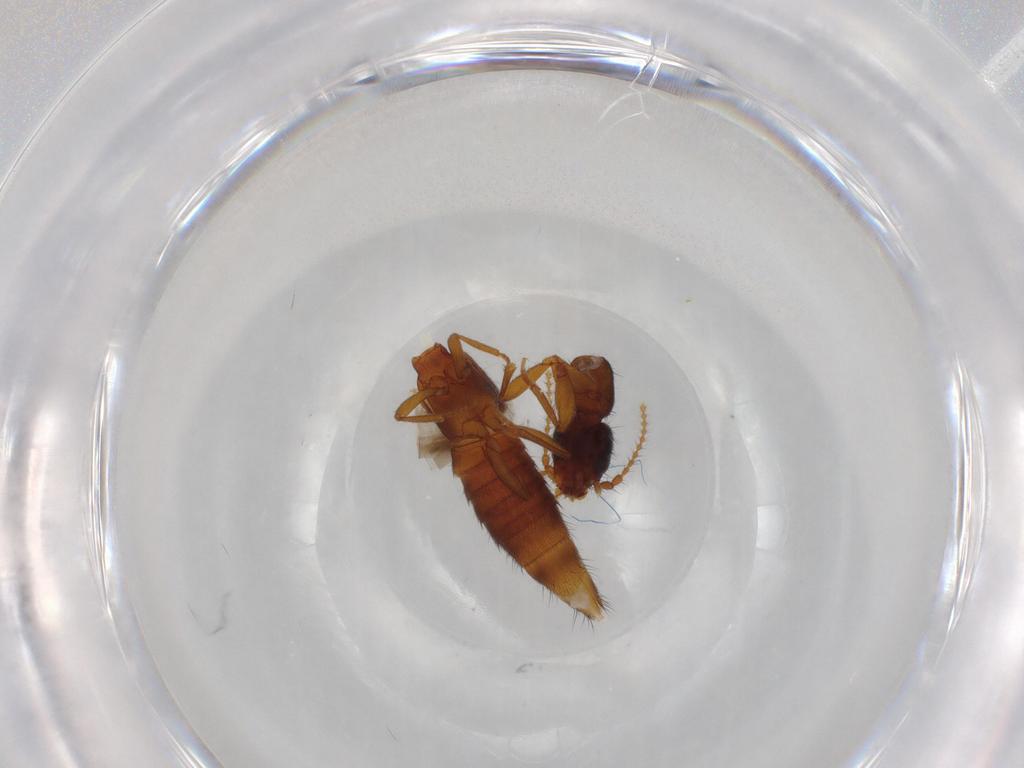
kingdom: Animalia
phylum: Arthropoda
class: Insecta
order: Coleoptera
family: Staphylinidae
